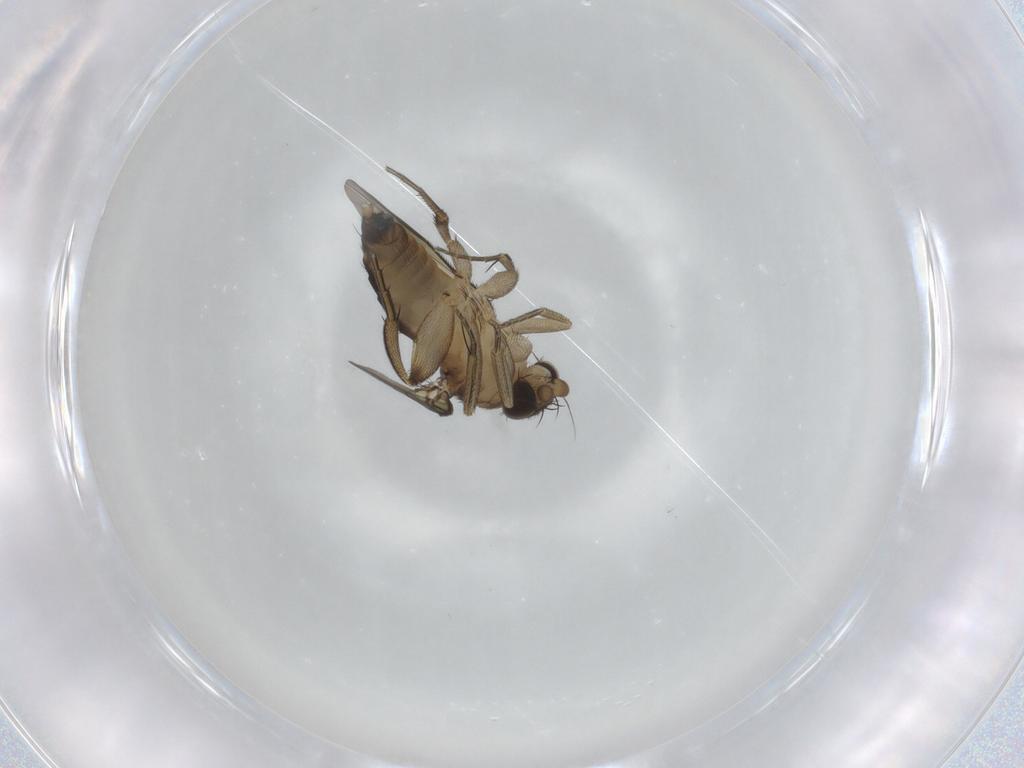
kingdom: Animalia
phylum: Arthropoda
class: Insecta
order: Diptera
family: Phoridae
